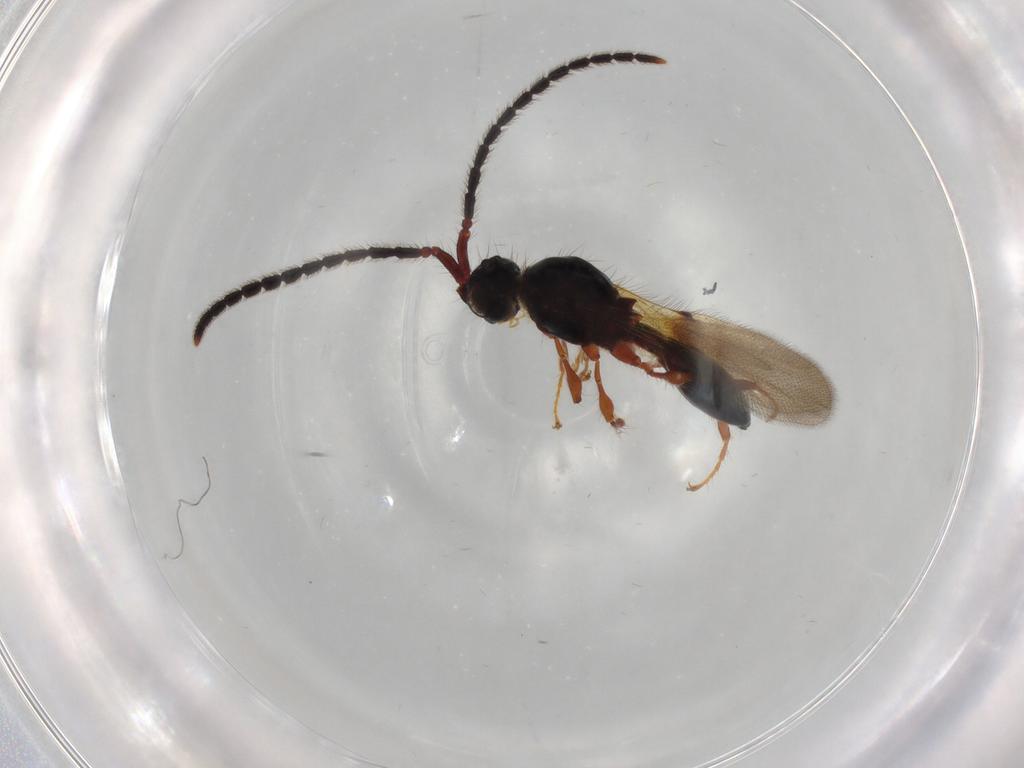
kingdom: Animalia
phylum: Arthropoda
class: Insecta
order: Hymenoptera
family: Diapriidae
